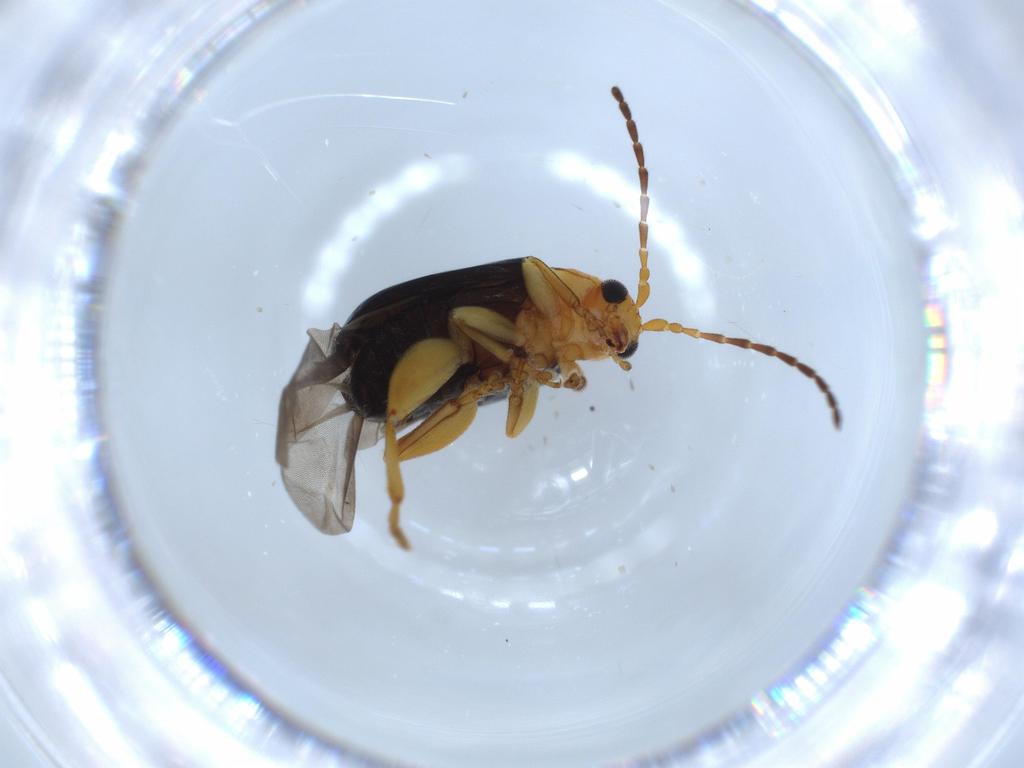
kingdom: Animalia
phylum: Arthropoda
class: Insecta
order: Coleoptera
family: Chrysomelidae
